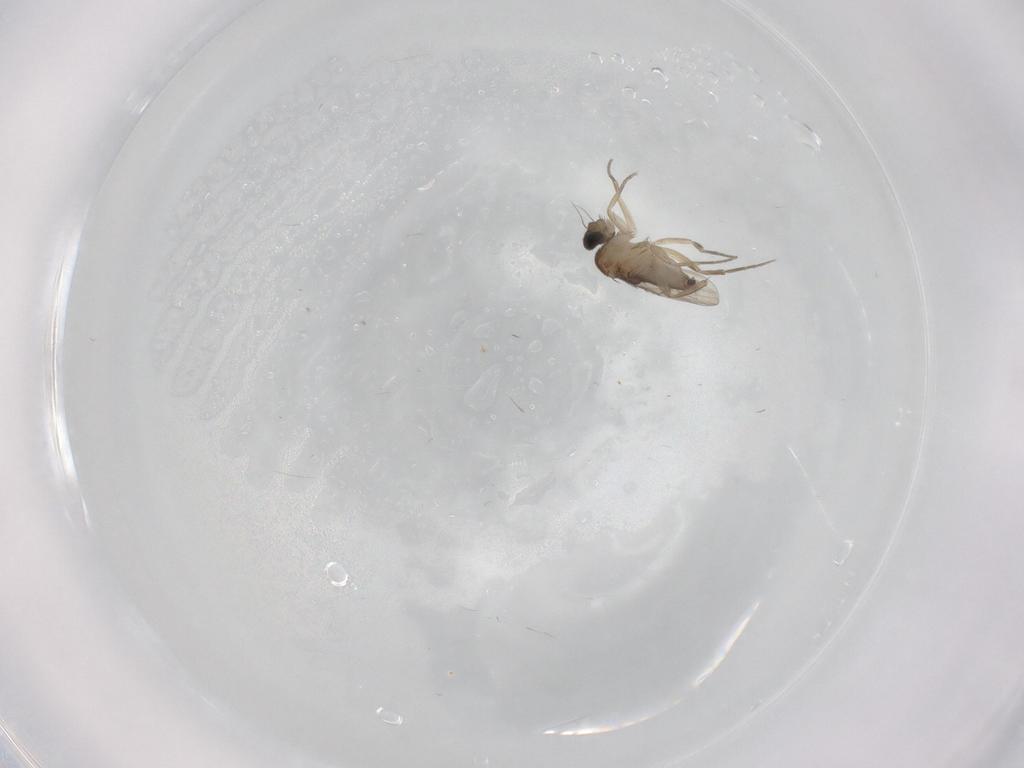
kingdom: Animalia
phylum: Arthropoda
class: Insecta
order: Diptera
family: Phoridae
